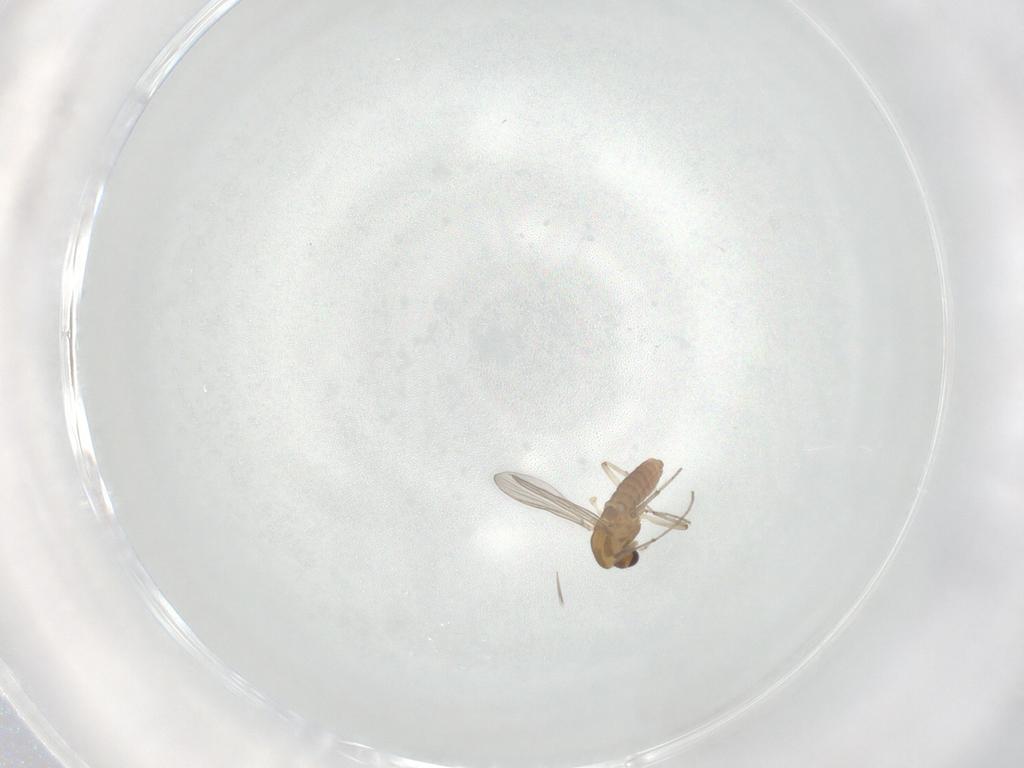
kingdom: Animalia
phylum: Arthropoda
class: Insecta
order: Diptera
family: Chironomidae
